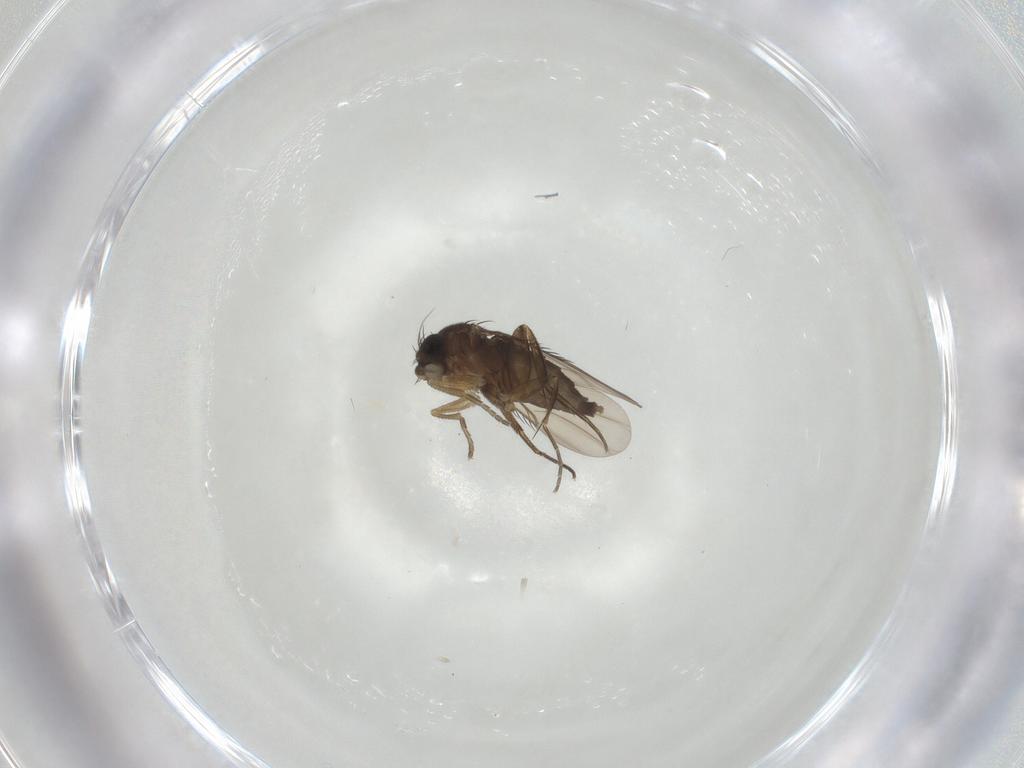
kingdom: Animalia
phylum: Arthropoda
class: Insecta
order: Diptera
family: Phoridae
